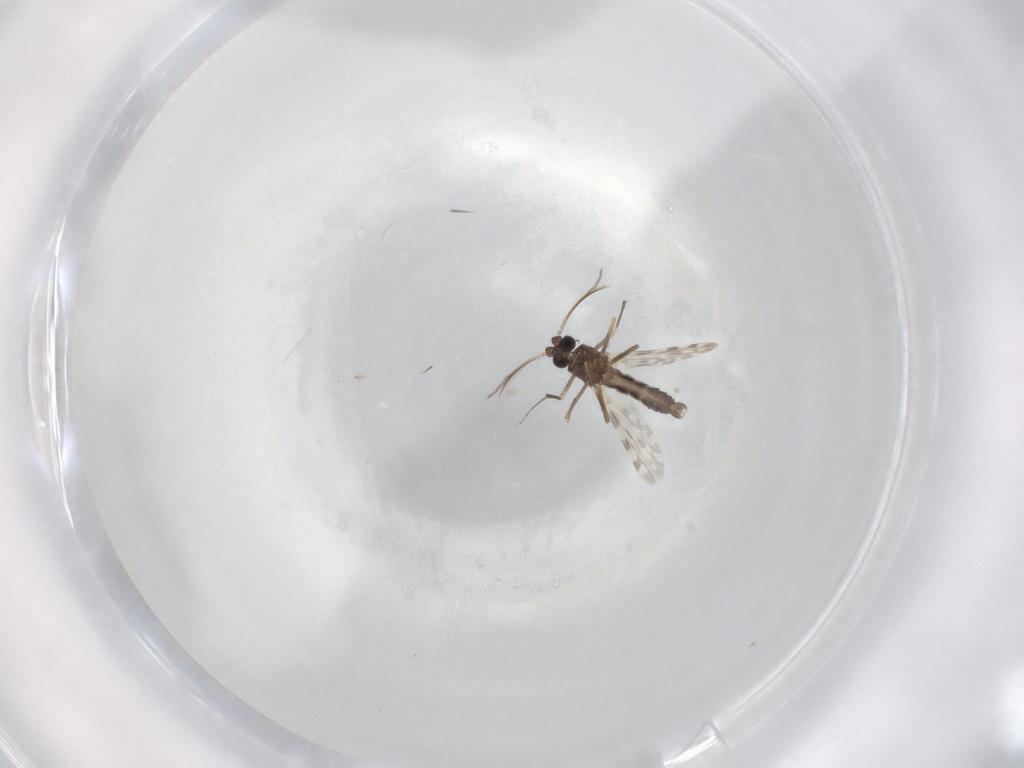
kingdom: Animalia
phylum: Arthropoda
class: Insecta
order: Diptera
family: Ceratopogonidae
